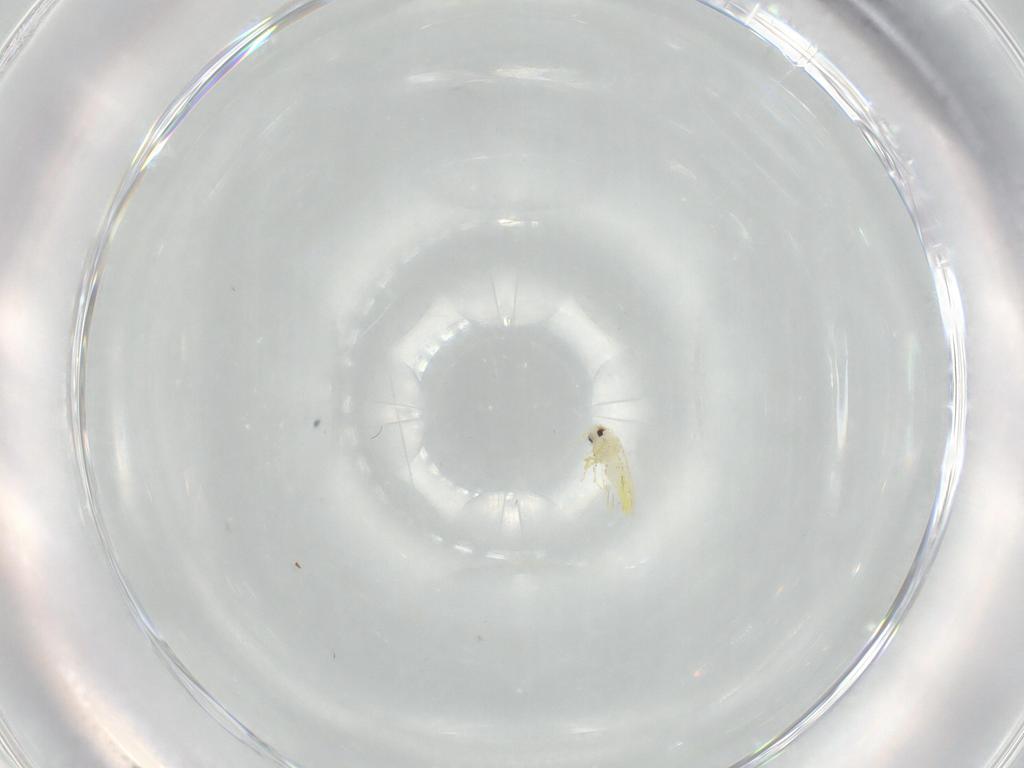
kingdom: Animalia
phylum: Arthropoda
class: Insecta
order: Hemiptera
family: Aleyrodidae
